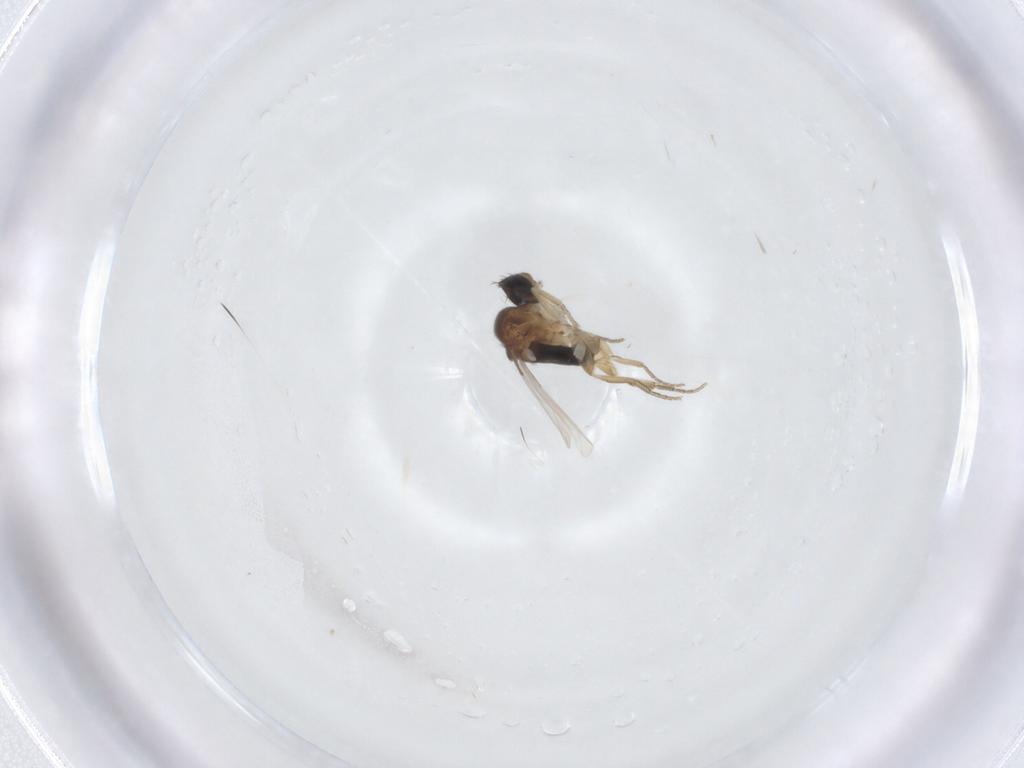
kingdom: Animalia
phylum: Arthropoda
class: Insecta
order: Diptera
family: Phoridae
